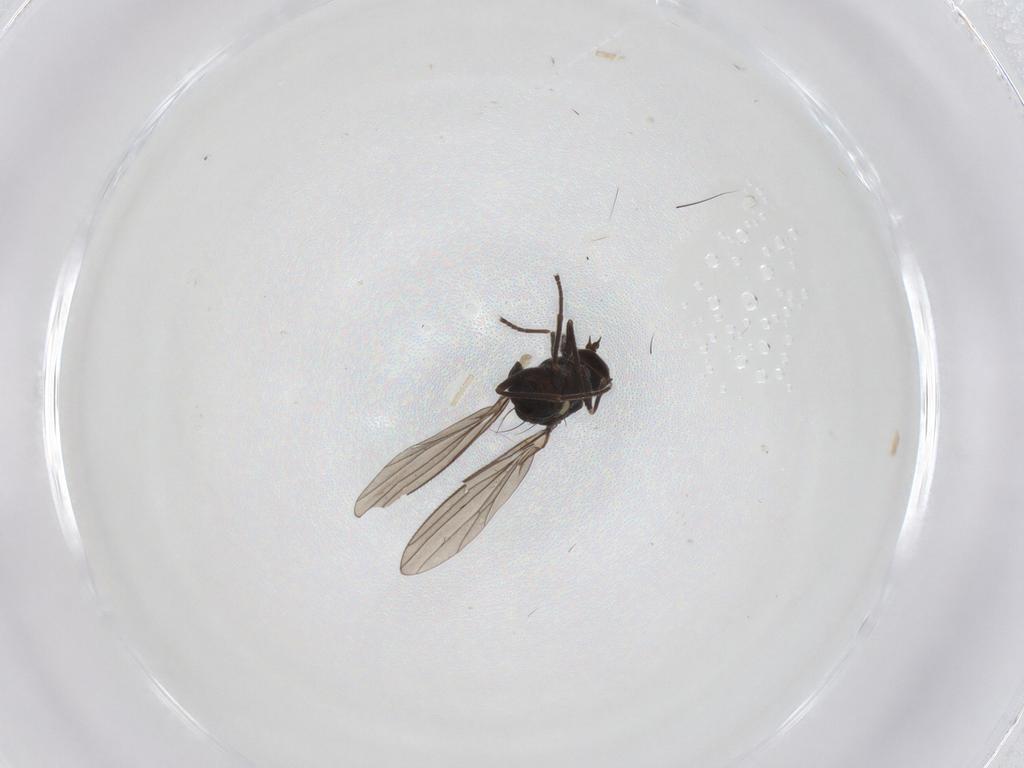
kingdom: Animalia
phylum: Arthropoda
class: Insecta
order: Diptera
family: Dolichopodidae
